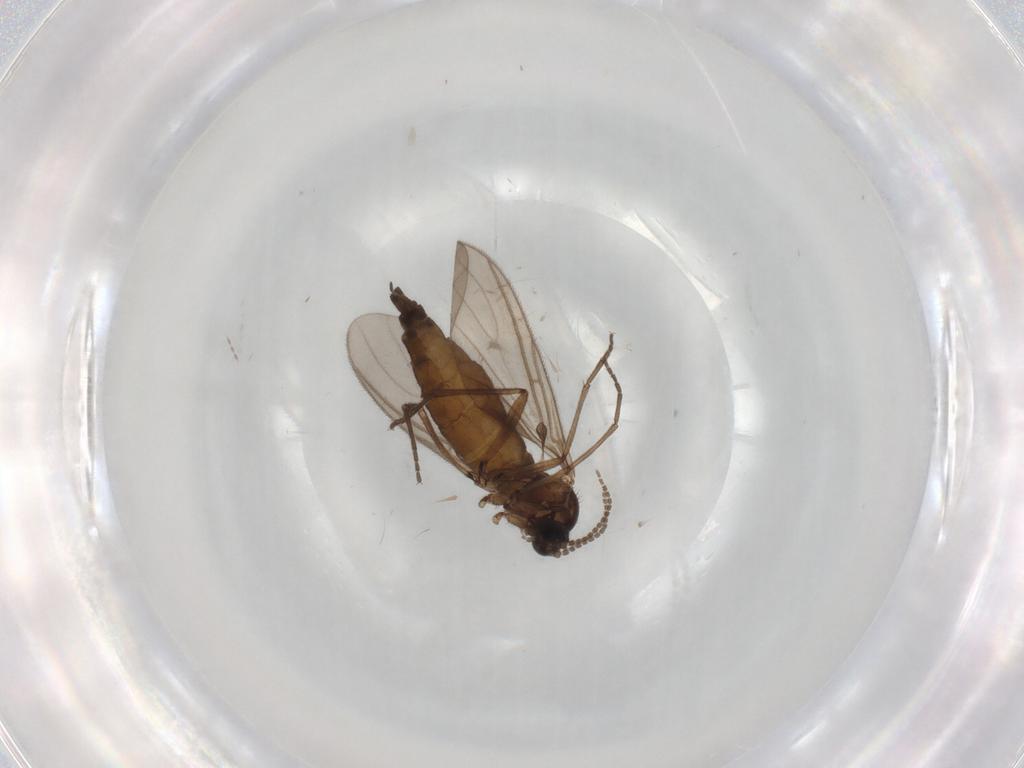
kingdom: Animalia
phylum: Arthropoda
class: Insecta
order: Diptera
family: Sciaridae
